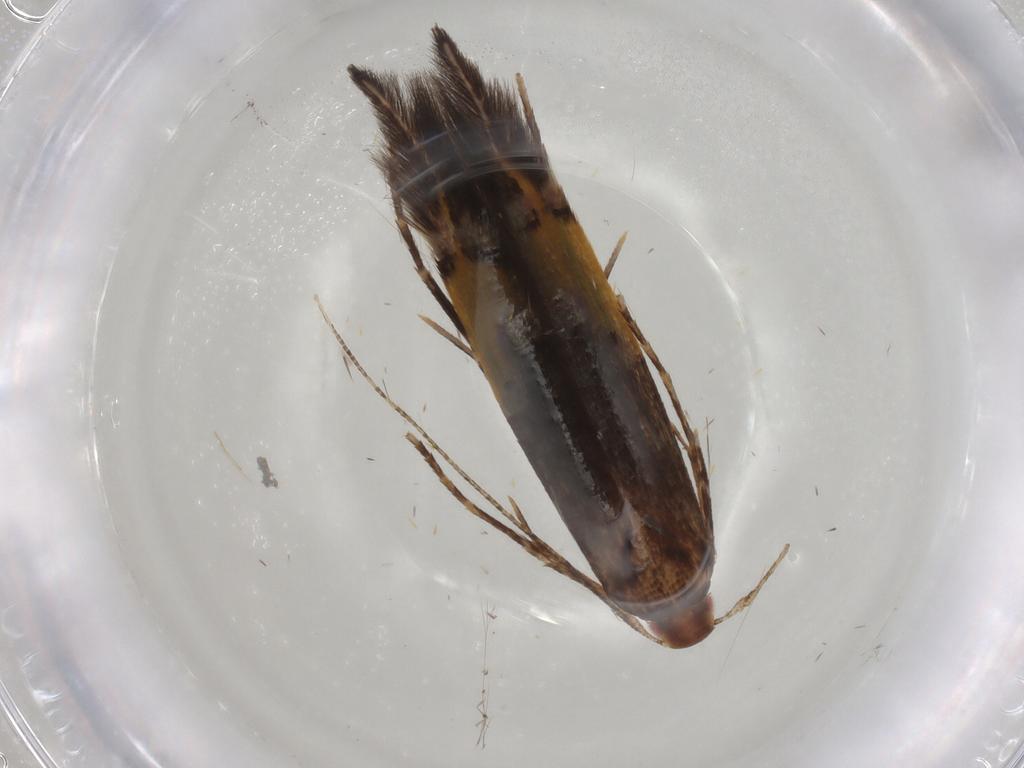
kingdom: Animalia
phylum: Arthropoda
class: Insecta
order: Lepidoptera
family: Cosmopterigidae
